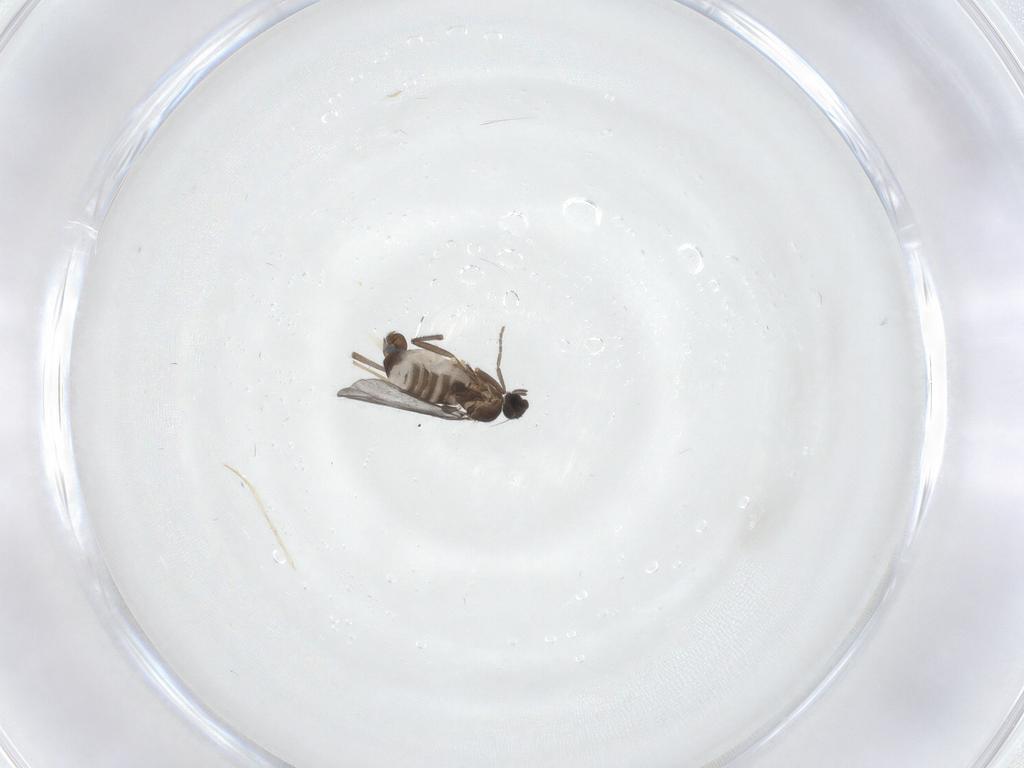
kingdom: Animalia
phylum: Arthropoda
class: Insecta
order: Diptera
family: Phoridae
